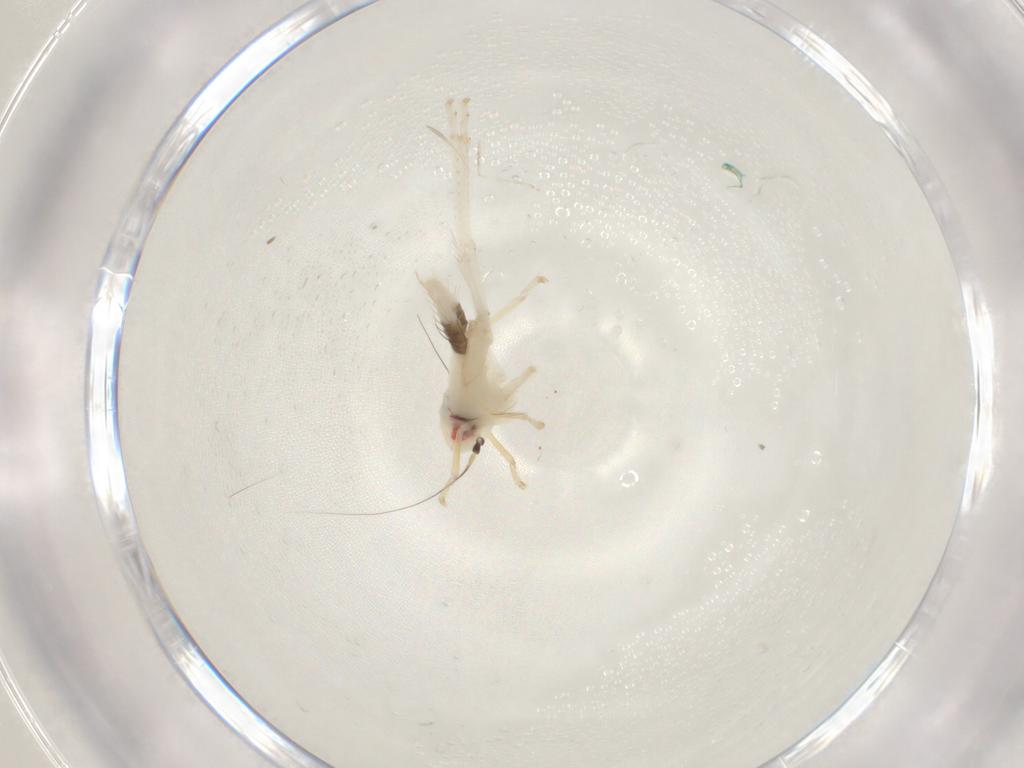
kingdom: Animalia
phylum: Arthropoda
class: Insecta
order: Hemiptera
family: Cicadellidae
